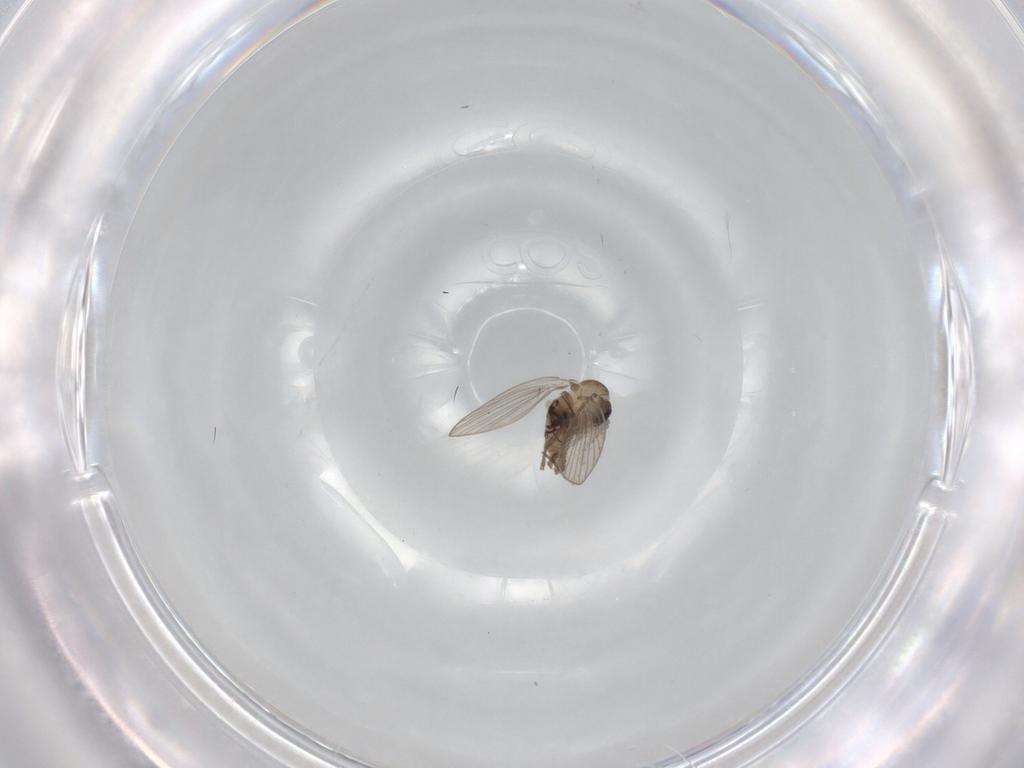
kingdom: Animalia
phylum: Arthropoda
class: Insecta
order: Diptera
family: Psychodidae
